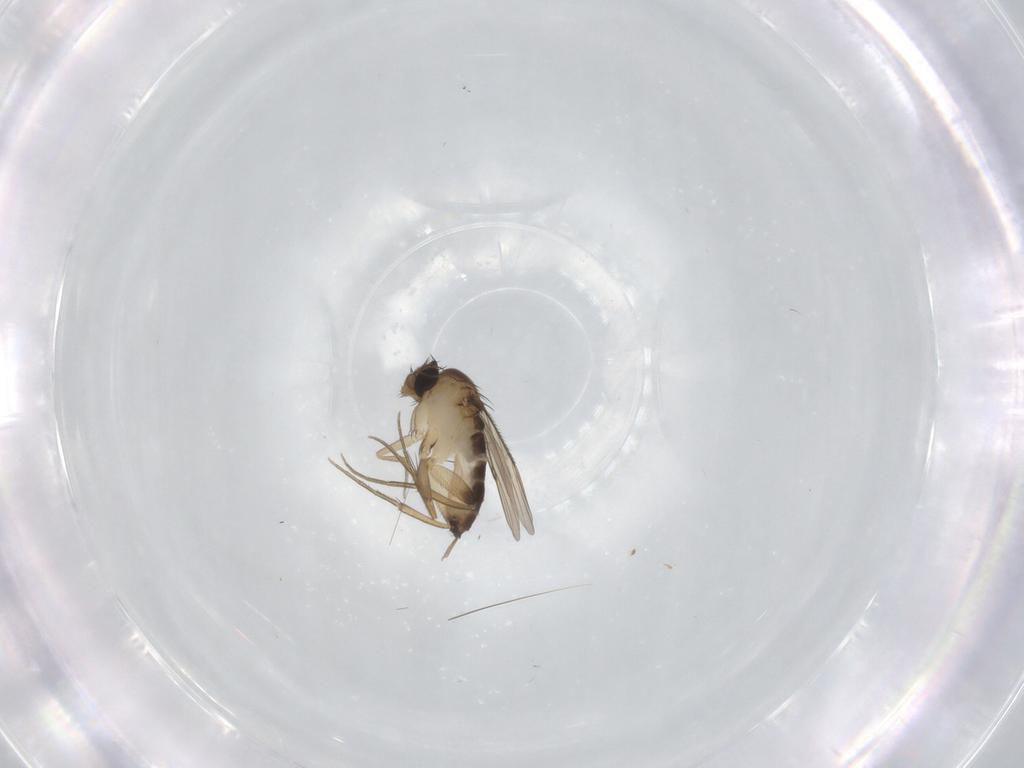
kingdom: Animalia
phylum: Arthropoda
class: Insecta
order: Diptera
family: Phoridae
